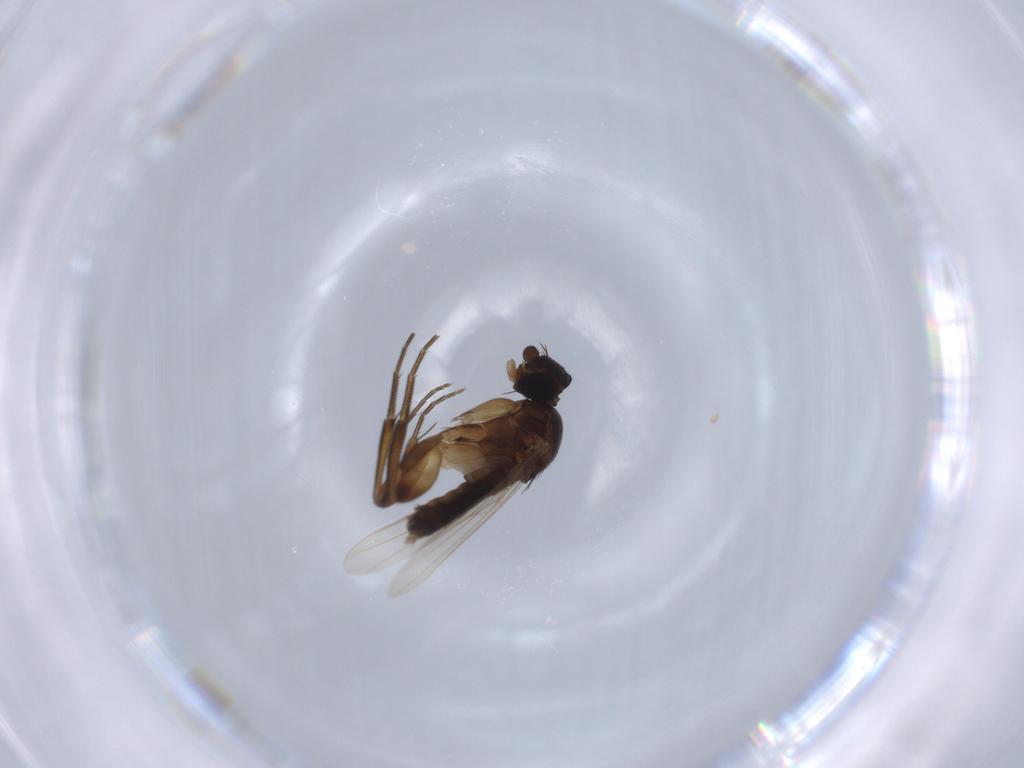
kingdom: Animalia
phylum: Arthropoda
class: Insecta
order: Diptera
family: Phoridae
